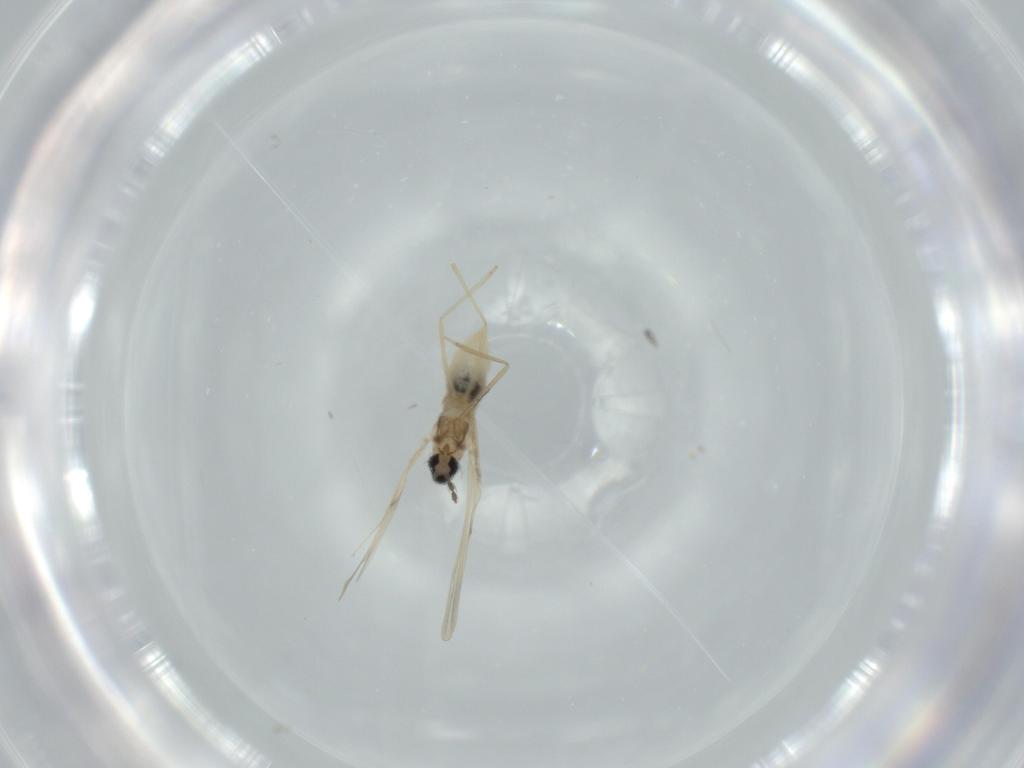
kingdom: Animalia
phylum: Arthropoda
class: Insecta
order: Diptera
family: Cecidomyiidae
